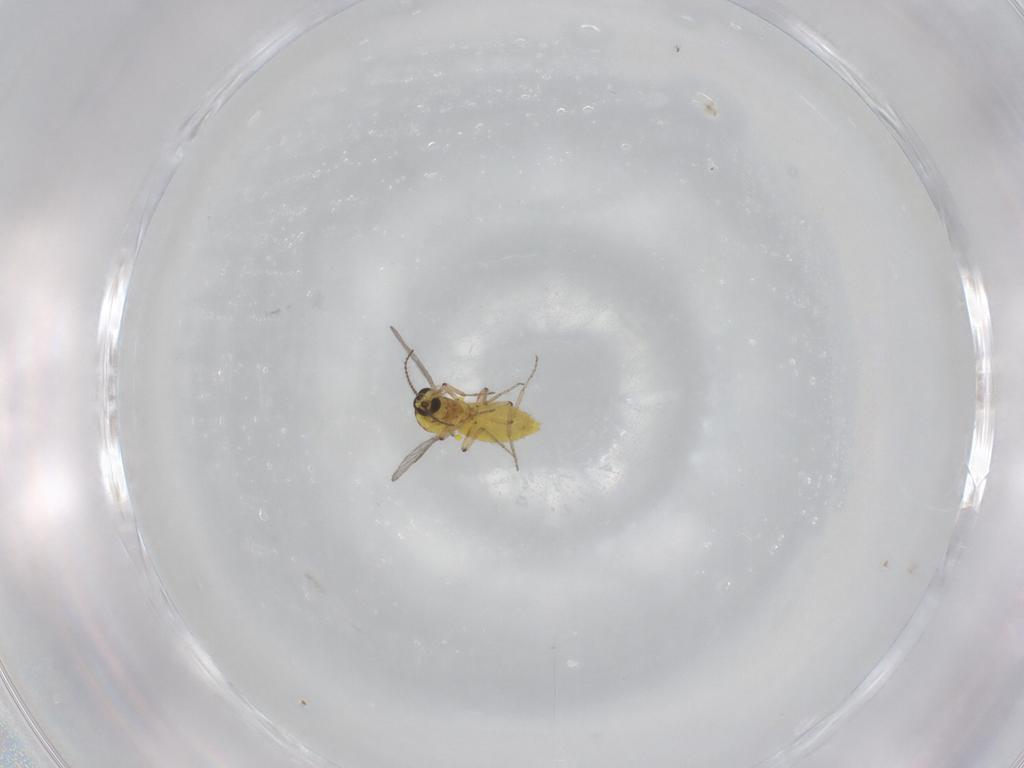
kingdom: Animalia
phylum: Arthropoda
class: Insecta
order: Diptera
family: Ceratopogonidae
